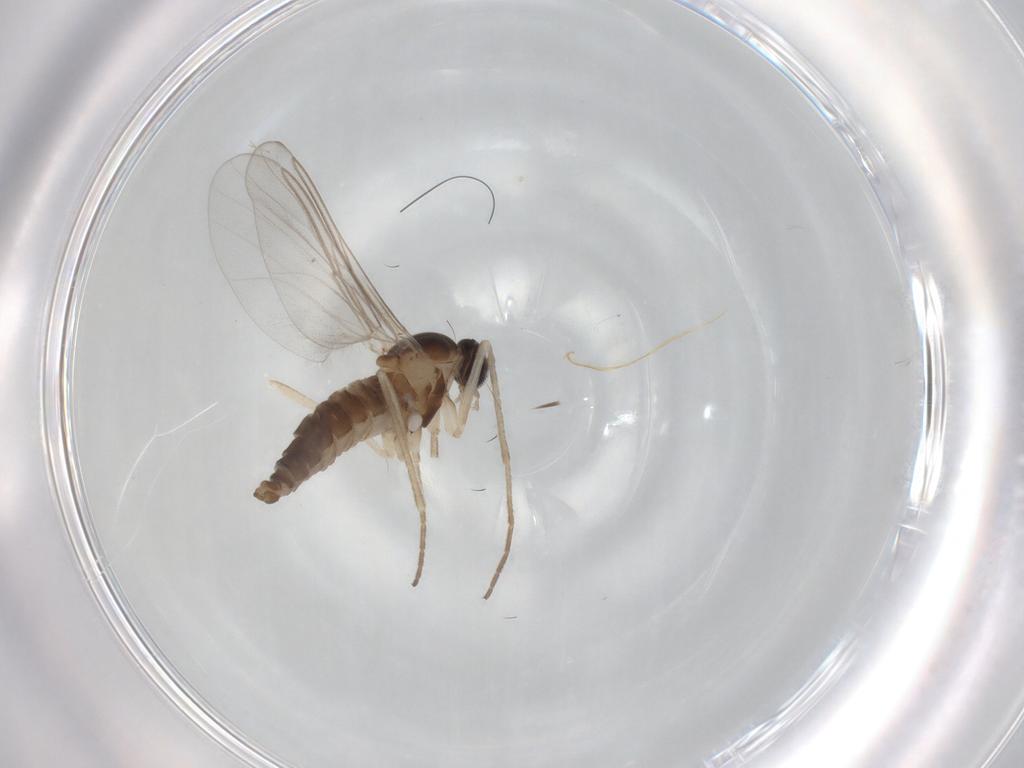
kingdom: Animalia
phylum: Arthropoda
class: Insecta
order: Diptera
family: Cecidomyiidae
